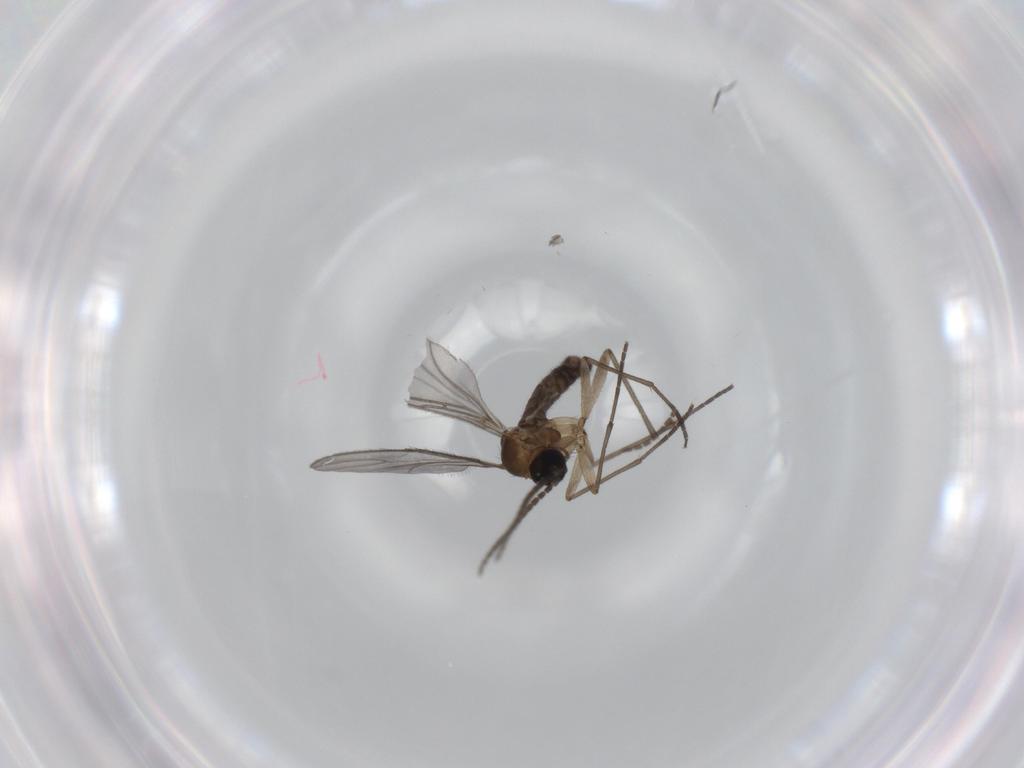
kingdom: Animalia
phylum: Arthropoda
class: Insecta
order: Diptera
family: Sciaridae
